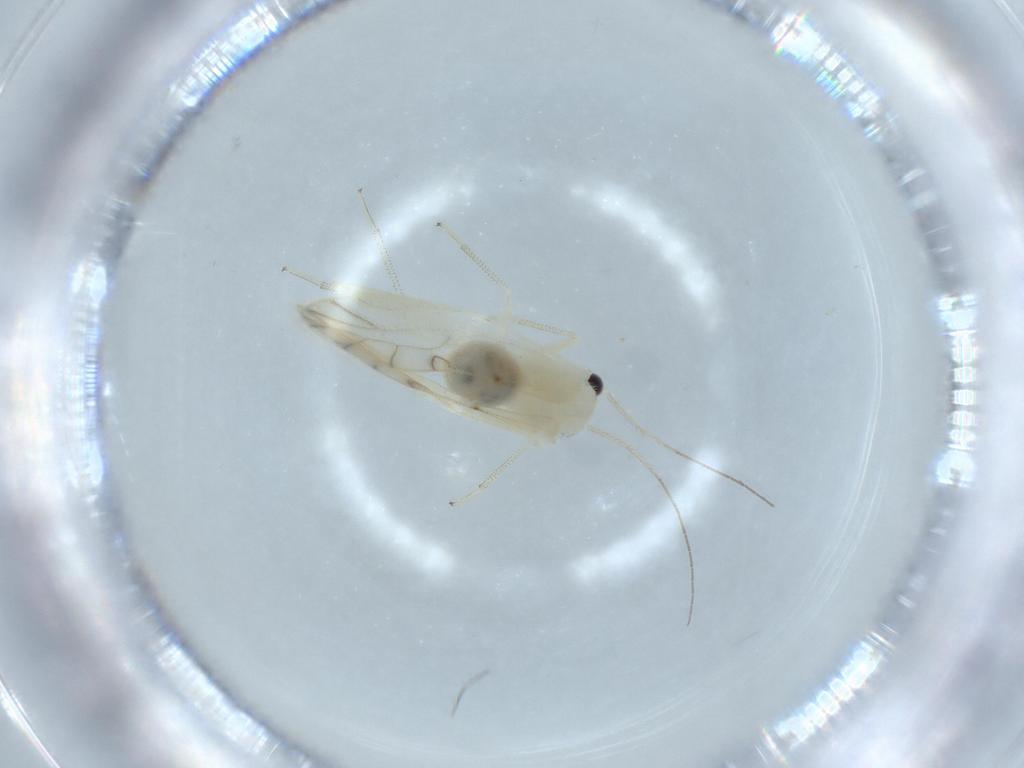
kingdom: Animalia
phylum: Arthropoda
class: Insecta
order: Psocodea
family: Caeciliusidae
